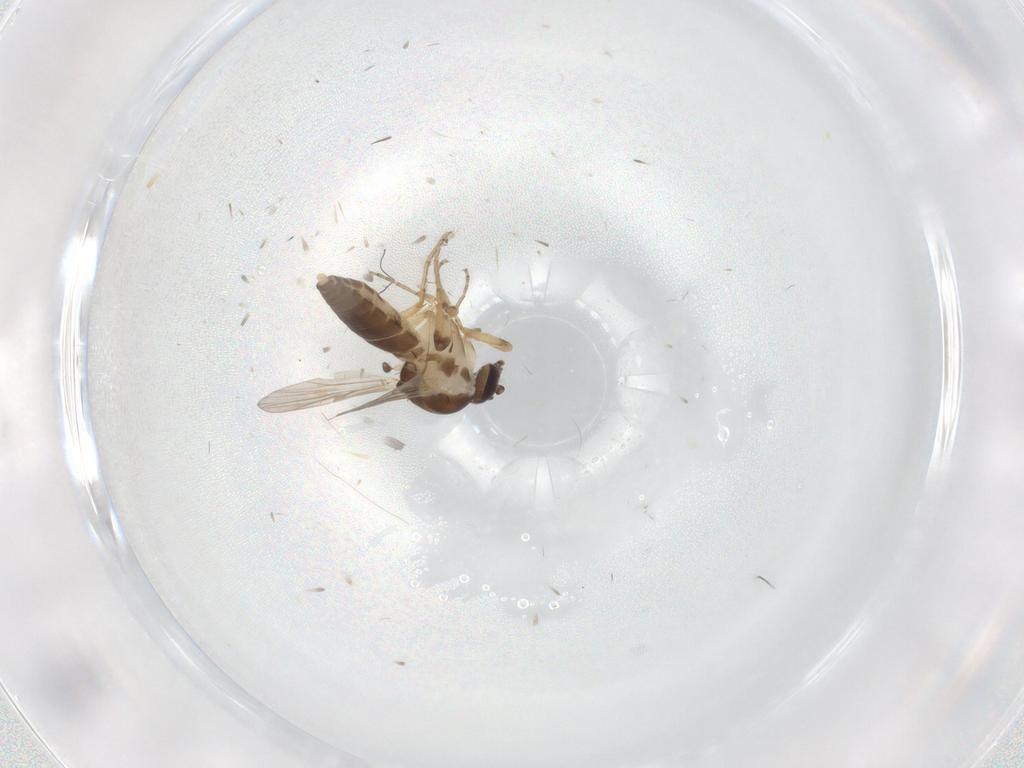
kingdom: Animalia
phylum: Arthropoda
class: Insecta
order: Diptera
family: Ceratopogonidae
